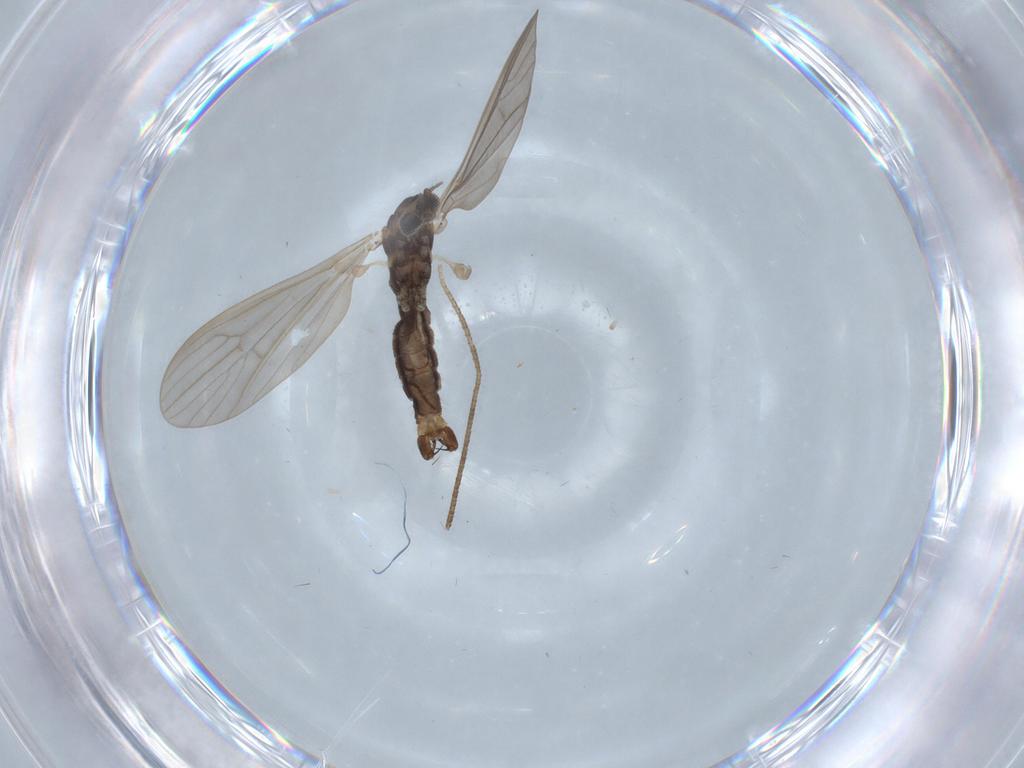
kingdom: Animalia
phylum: Arthropoda
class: Insecta
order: Diptera
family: Limoniidae
